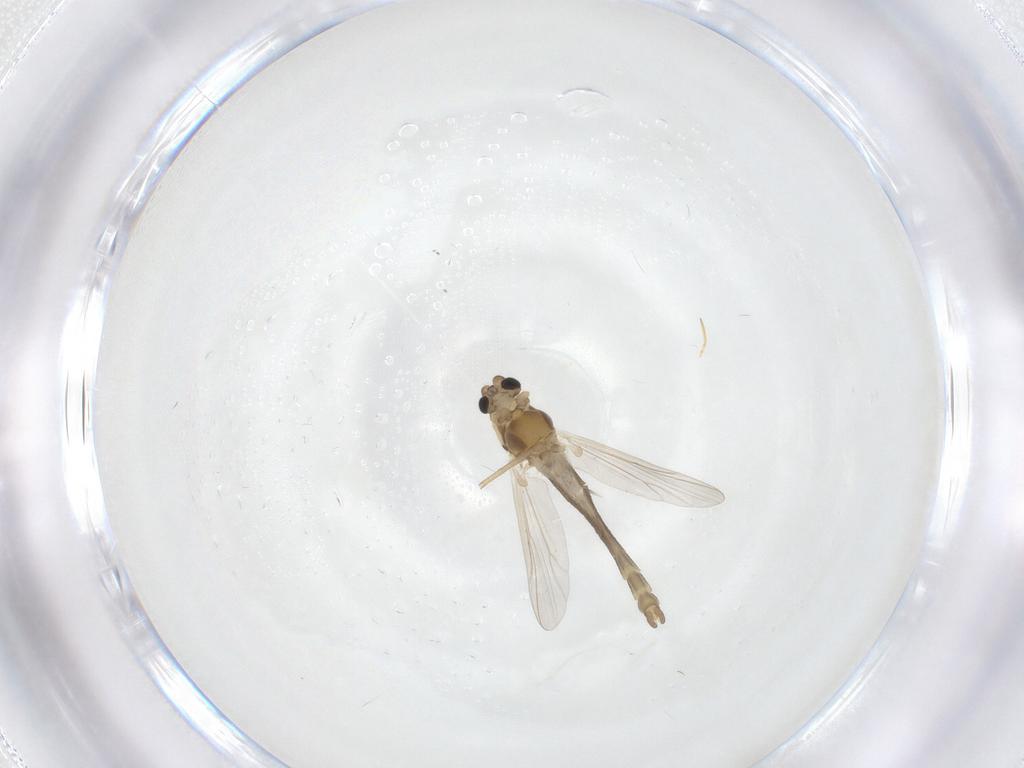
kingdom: Animalia
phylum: Arthropoda
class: Insecta
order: Diptera
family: Chironomidae
